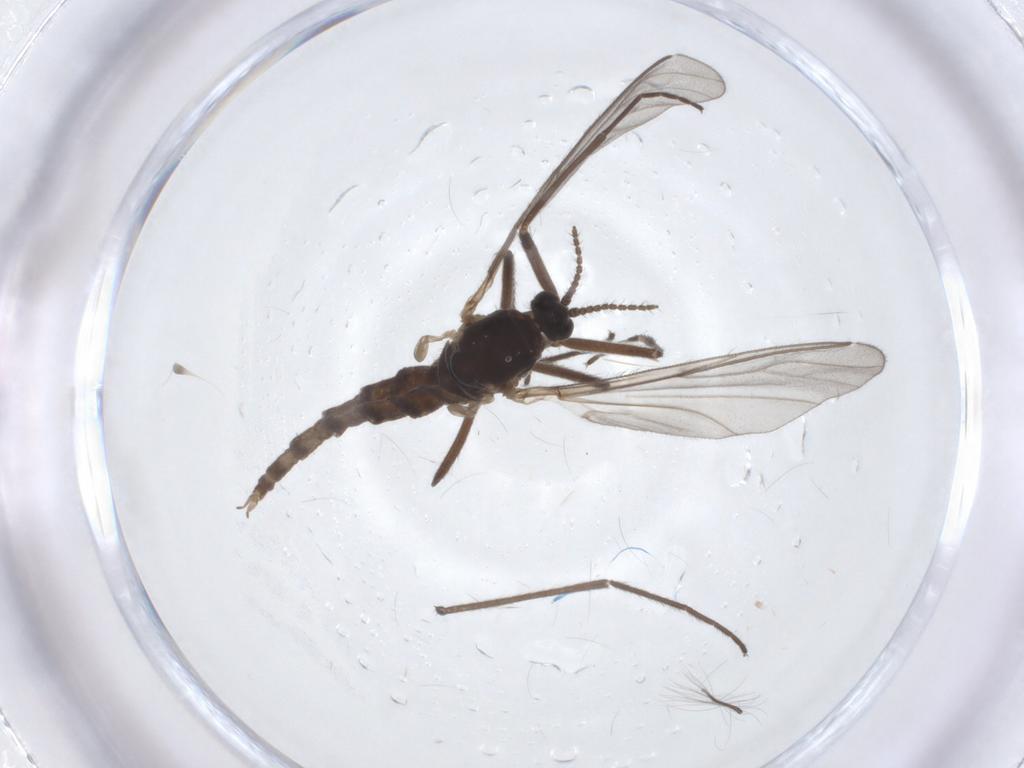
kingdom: Animalia
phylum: Arthropoda
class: Insecta
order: Diptera
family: Cecidomyiidae
